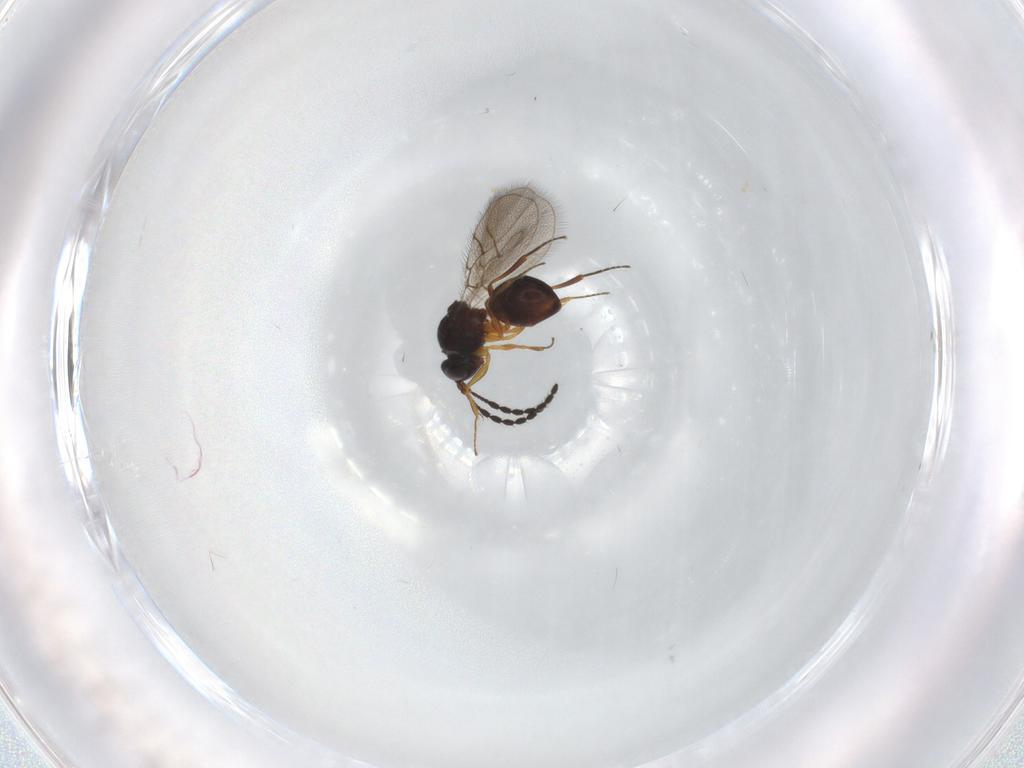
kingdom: Animalia
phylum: Arthropoda
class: Insecta
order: Hymenoptera
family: Figitidae
